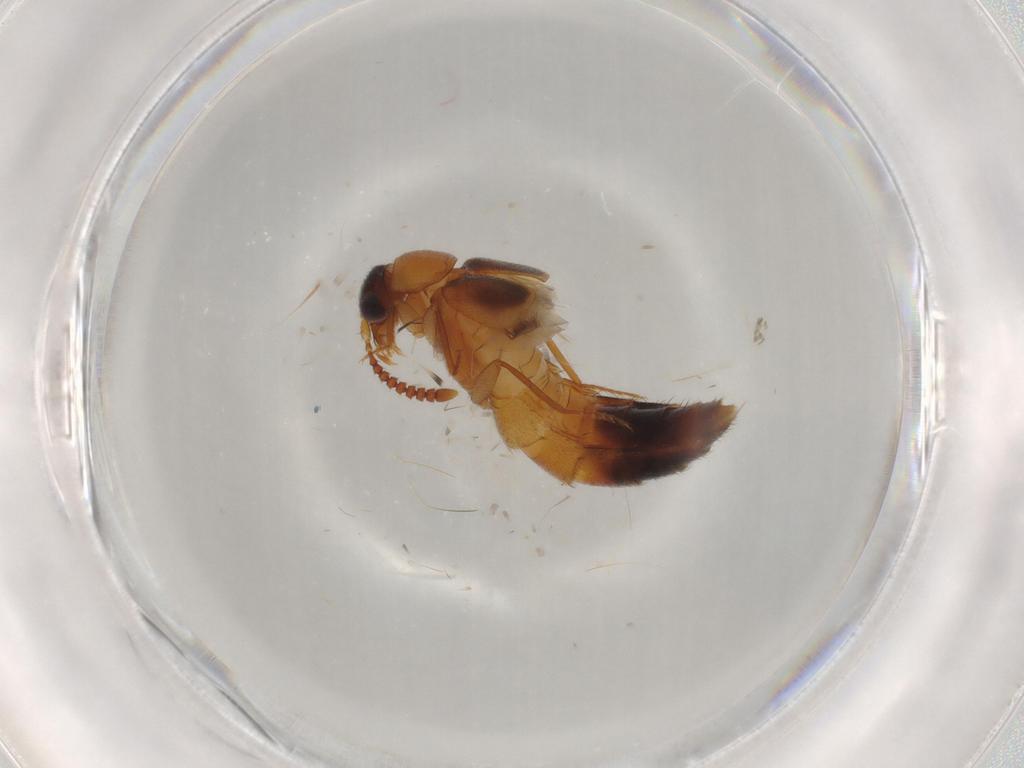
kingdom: Animalia
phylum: Arthropoda
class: Insecta
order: Coleoptera
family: Staphylinidae
